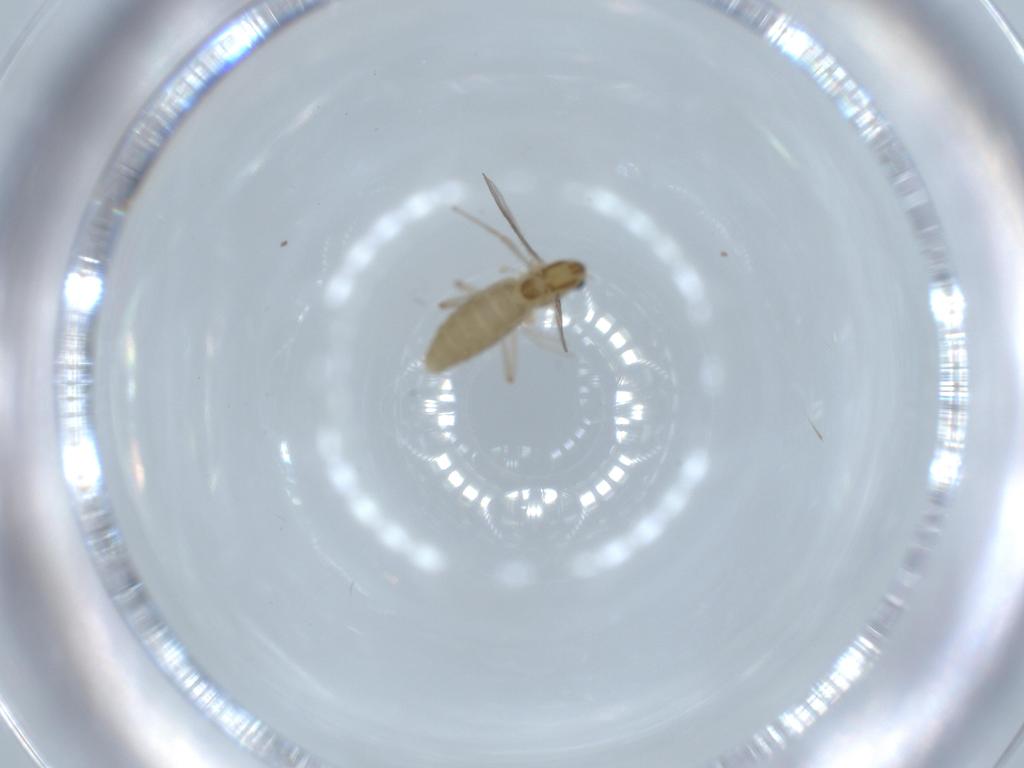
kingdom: Animalia
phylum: Arthropoda
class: Insecta
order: Diptera
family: Chironomidae
